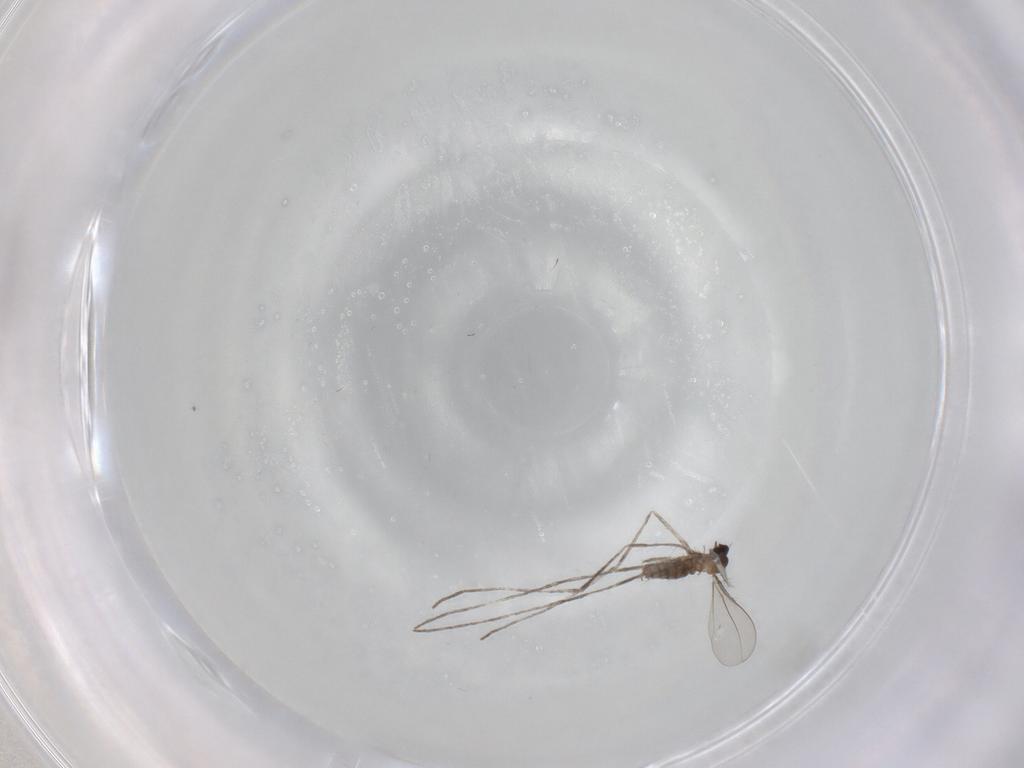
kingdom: Animalia
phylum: Arthropoda
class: Insecta
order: Diptera
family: Cecidomyiidae
